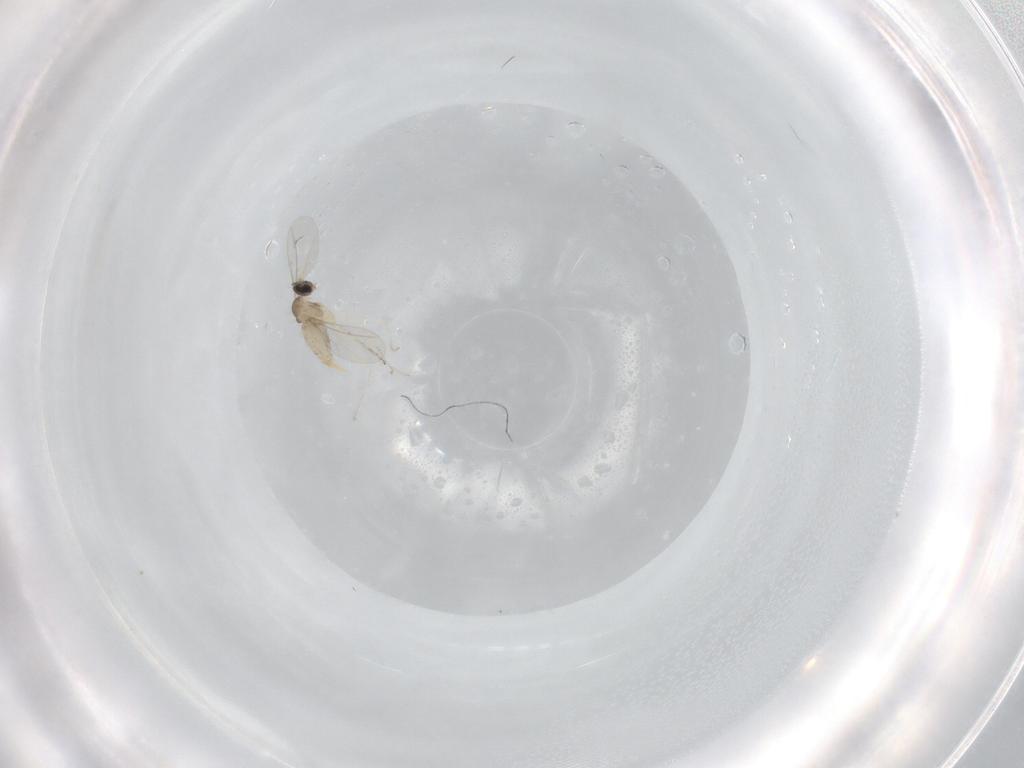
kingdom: Animalia
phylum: Arthropoda
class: Insecta
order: Diptera
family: Cecidomyiidae
